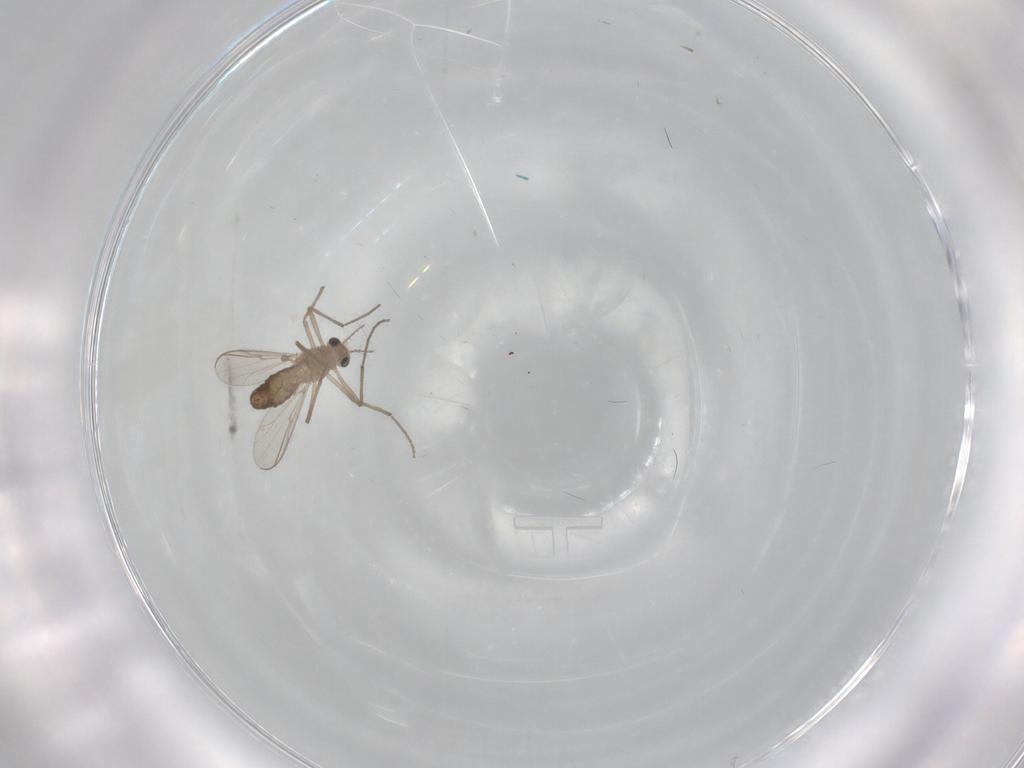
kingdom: Animalia
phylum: Arthropoda
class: Insecta
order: Diptera
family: Chironomidae
